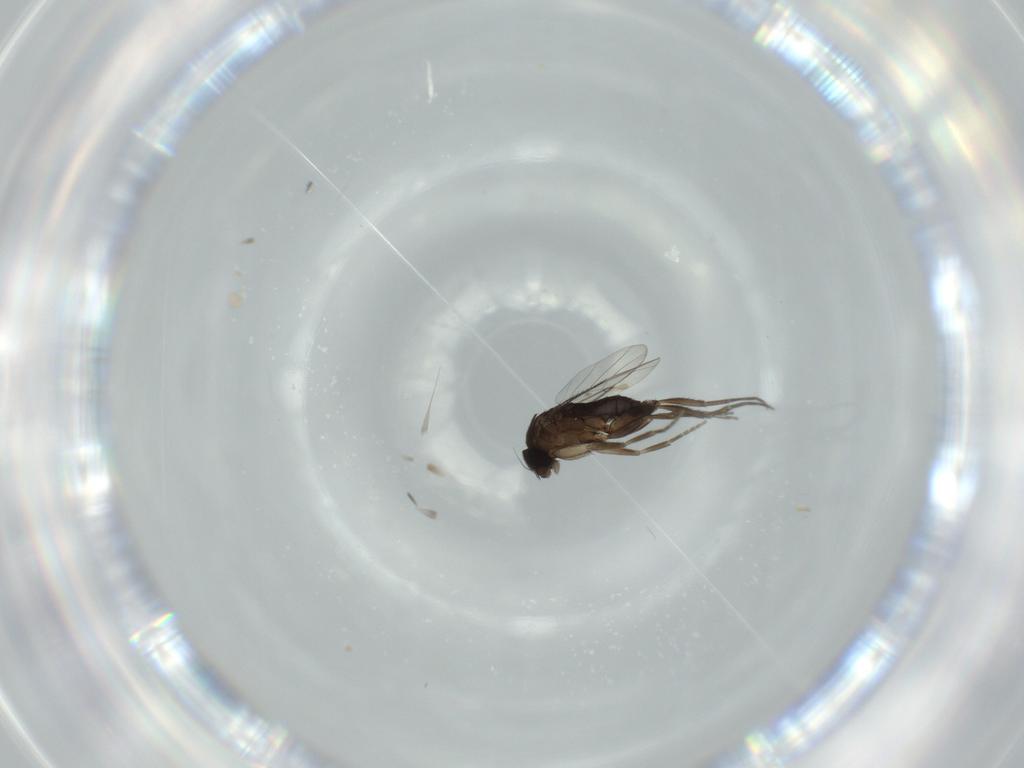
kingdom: Animalia
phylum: Arthropoda
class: Insecta
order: Diptera
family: Phoridae
